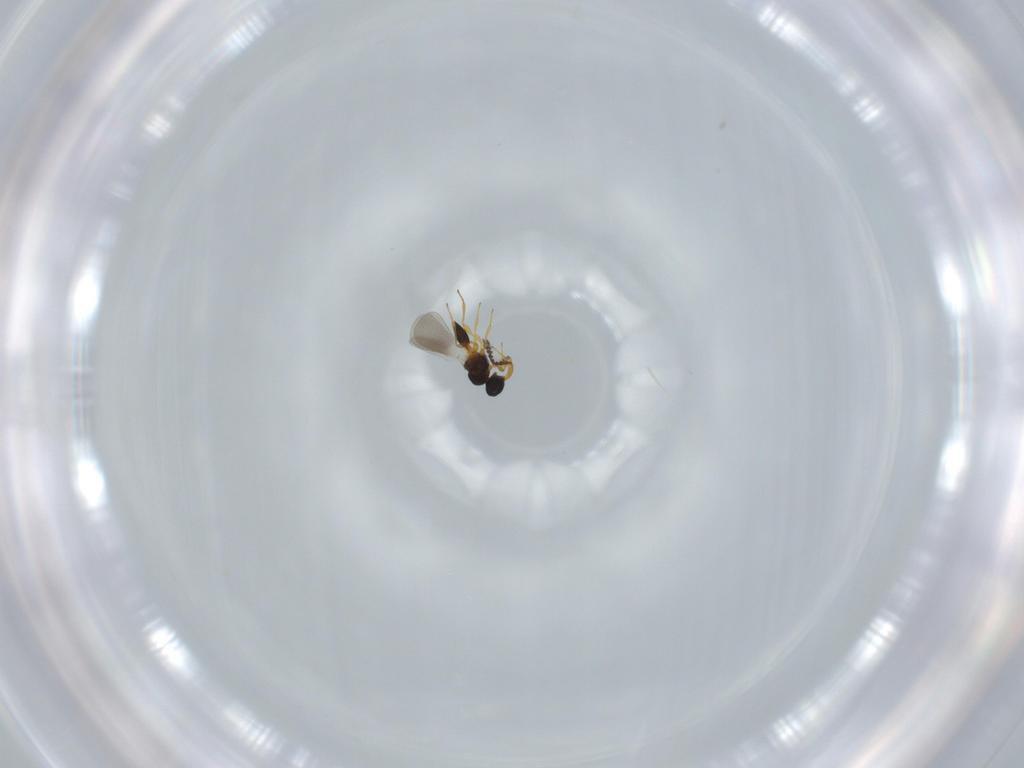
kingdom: Animalia
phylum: Arthropoda
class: Insecta
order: Hymenoptera
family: Platygastridae
